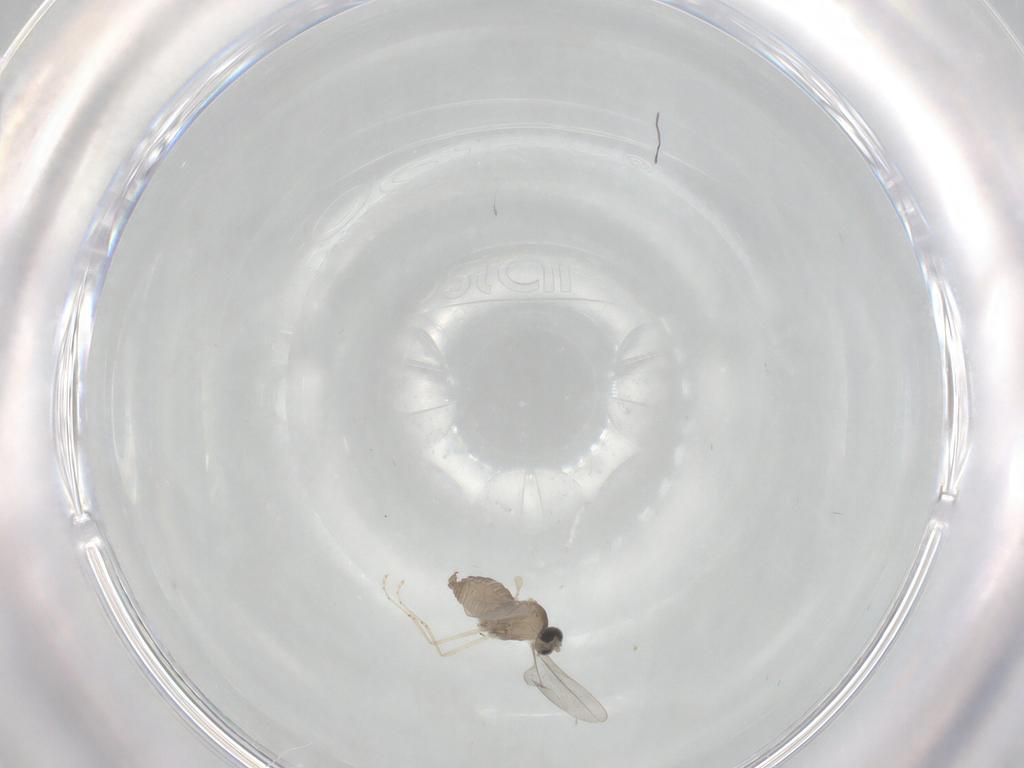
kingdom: Animalia
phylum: Arthropoda
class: Insecta
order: Diptera
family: Cecidomyiidae
